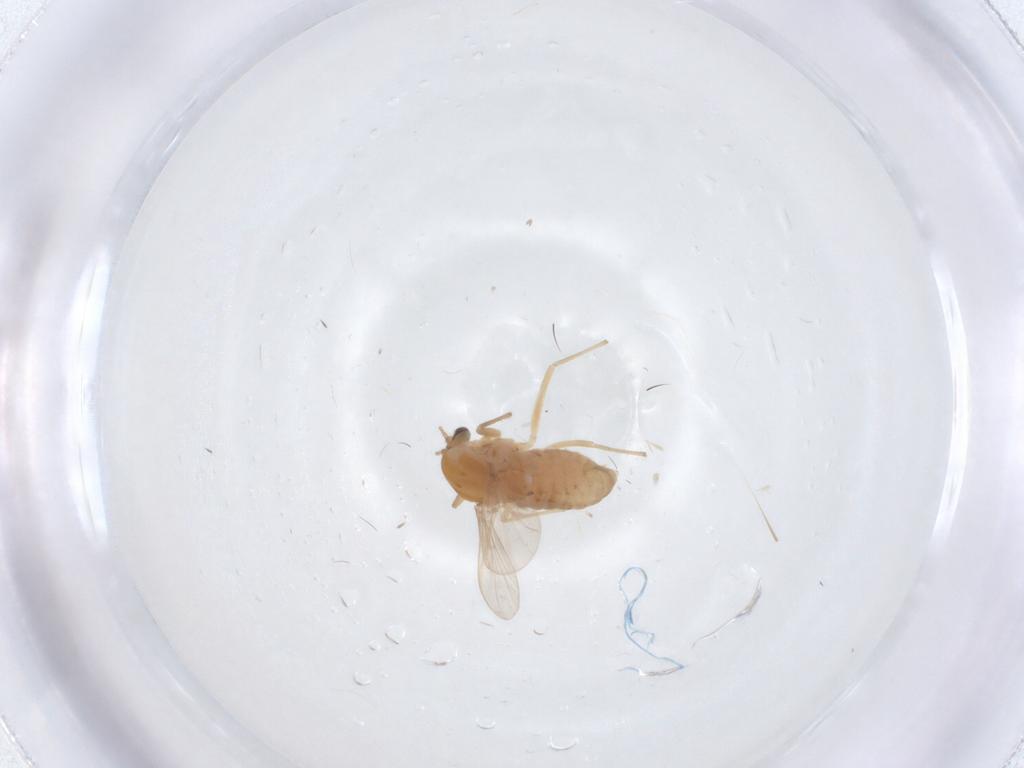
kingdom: Animalia
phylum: Arthropoda
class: Insecta
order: Diptera
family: Chironomidae
